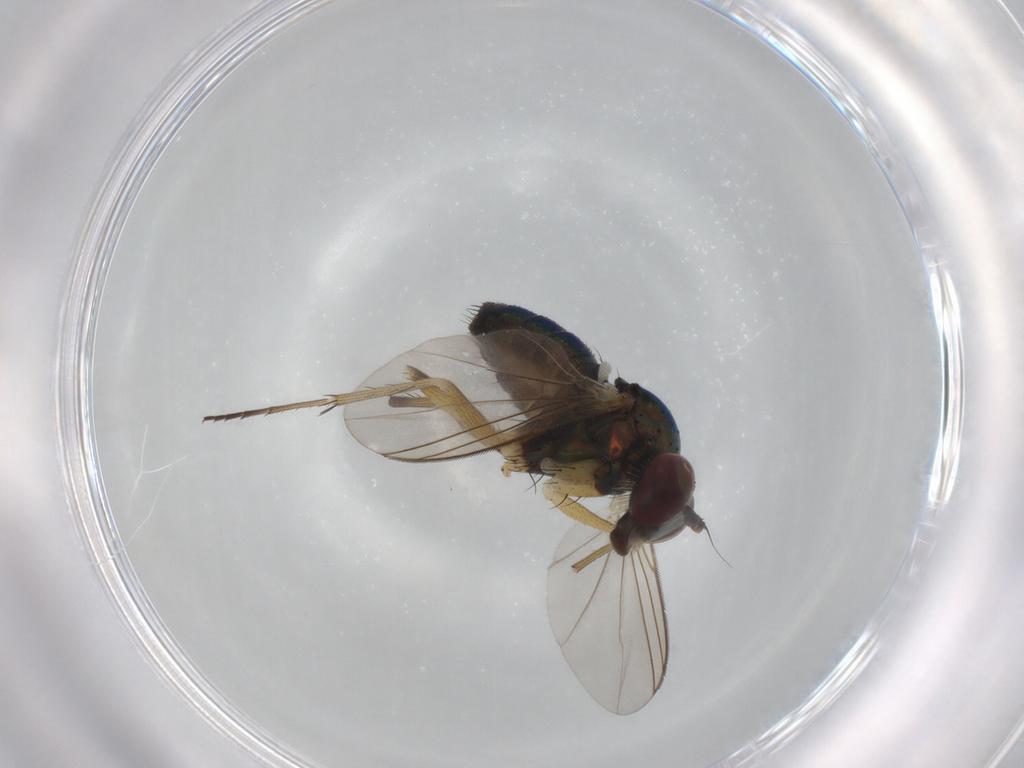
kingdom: Animalia
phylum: Arthropoda
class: Insecta
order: Diptera
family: Dolichopodidae
